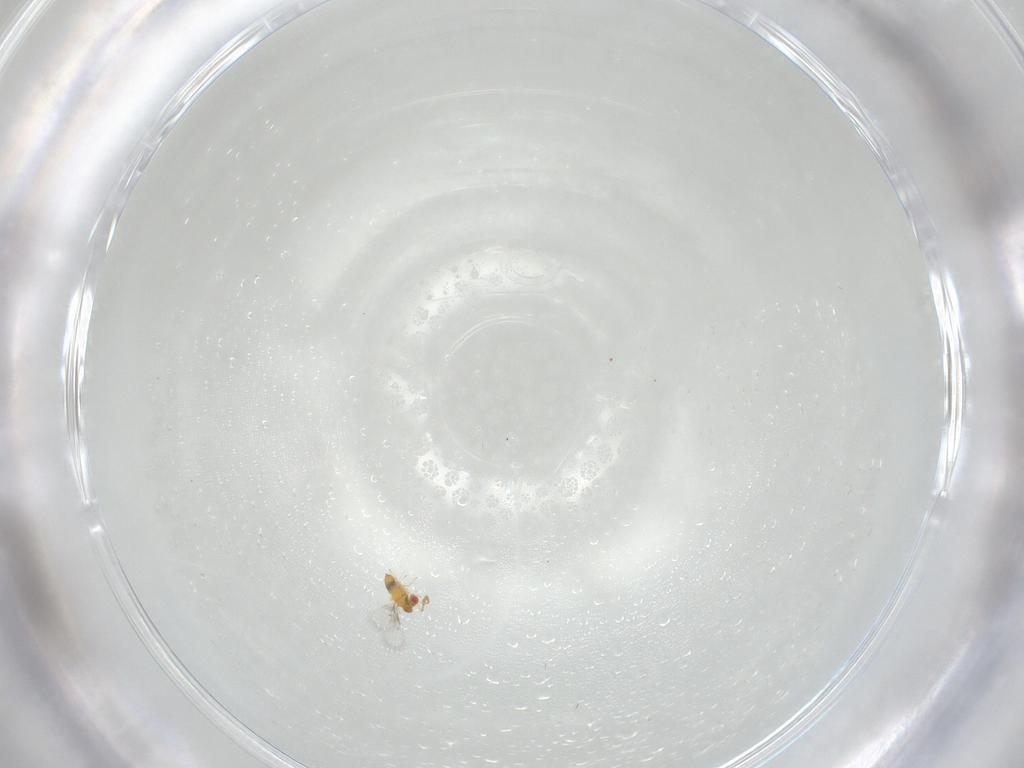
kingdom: Animalia
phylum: Arthropoda
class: Insecta
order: Hymenoptera
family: Trichogrammatidae
